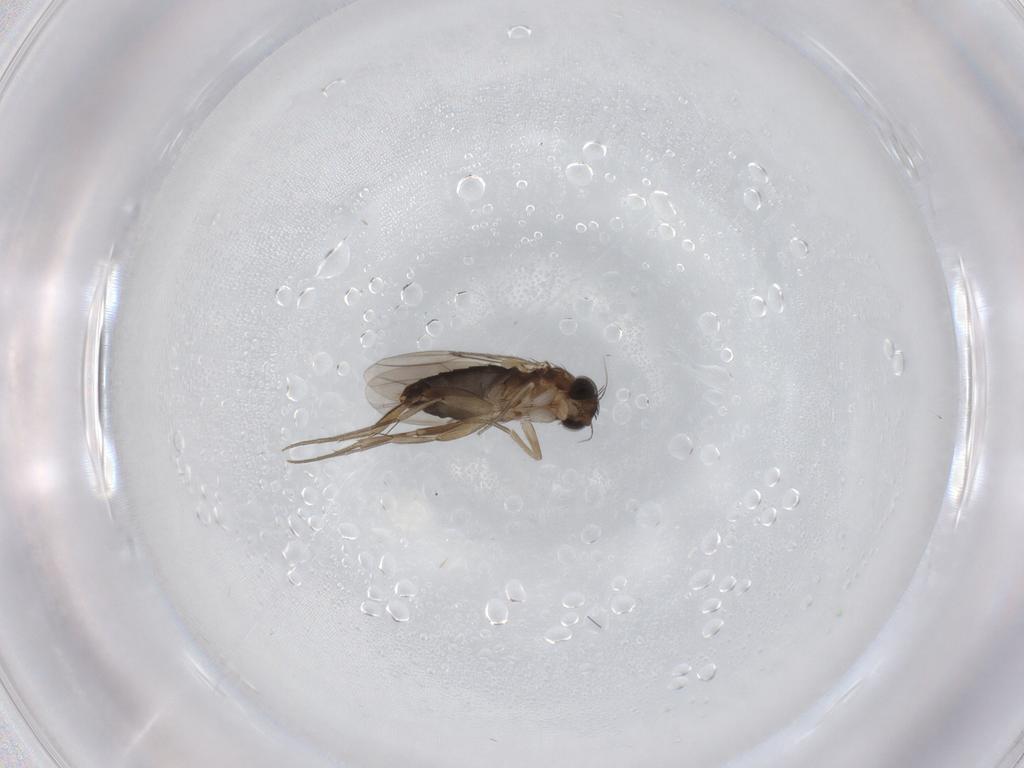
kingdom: Animalia
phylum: Arthropoda
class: Insecta
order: Diptera
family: Phoridae
